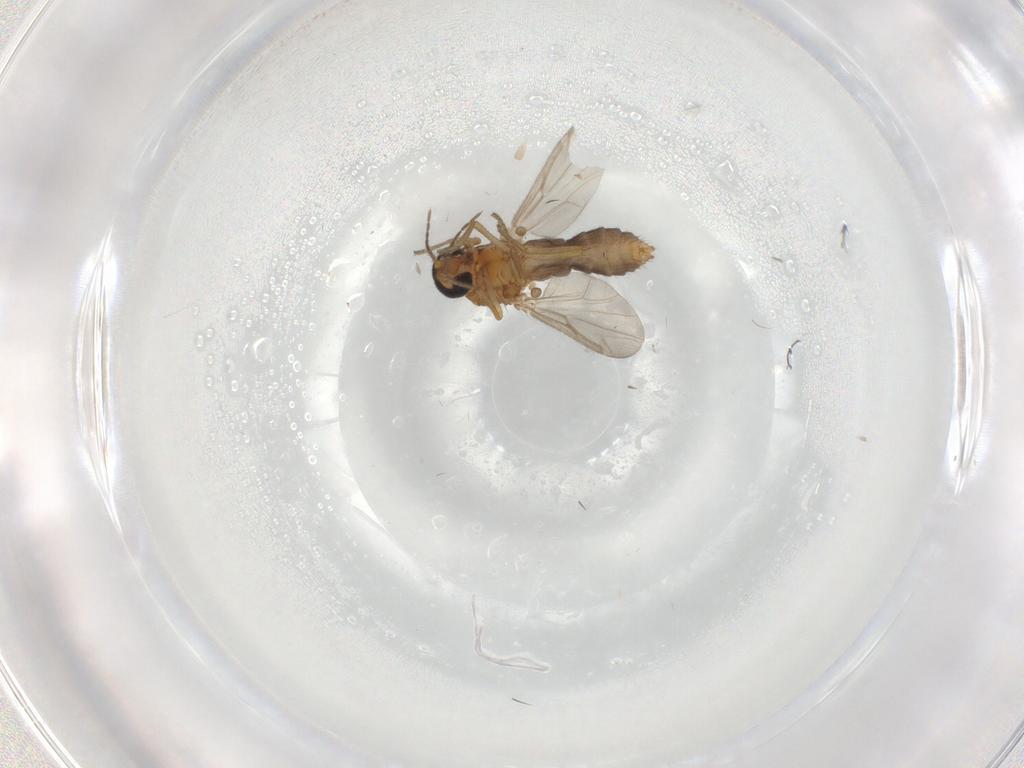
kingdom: Animalia
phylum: Arthropoda
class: Insecta
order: Diptera
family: Ceratopogonidae
